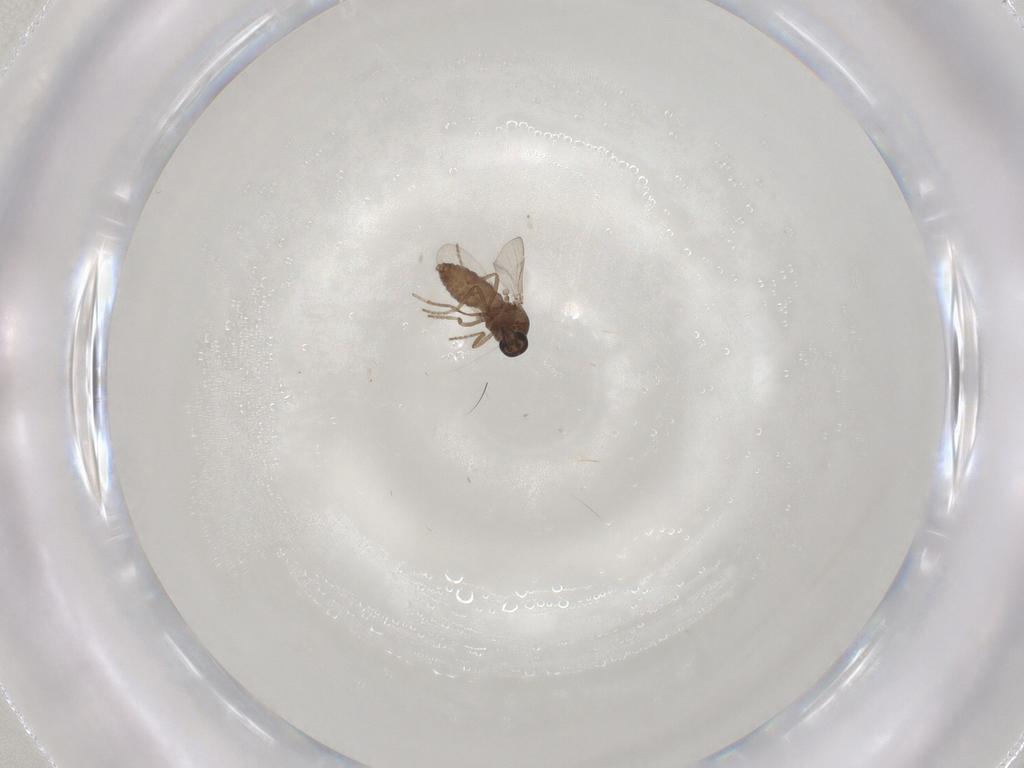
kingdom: Animalia
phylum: Arthropoda
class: Insecta
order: Diptera
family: Ceratopogonidae
